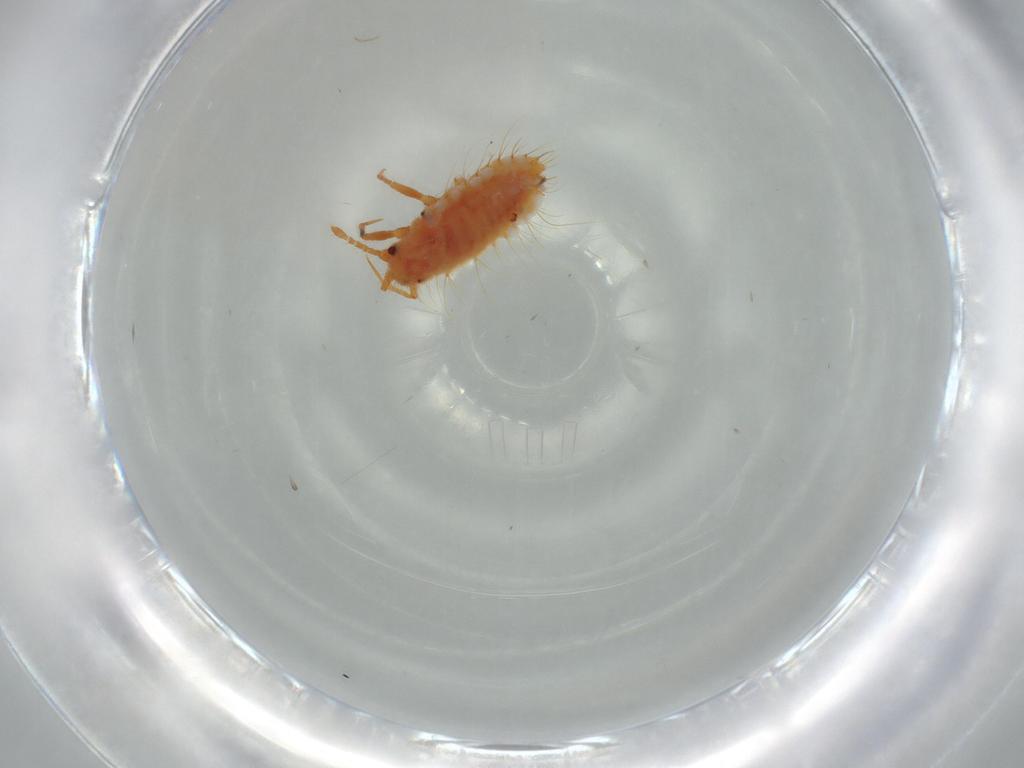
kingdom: Animalia
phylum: Arthropoda
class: Insecta
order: Hemiptera
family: Coccoidea_incertae_sedis
